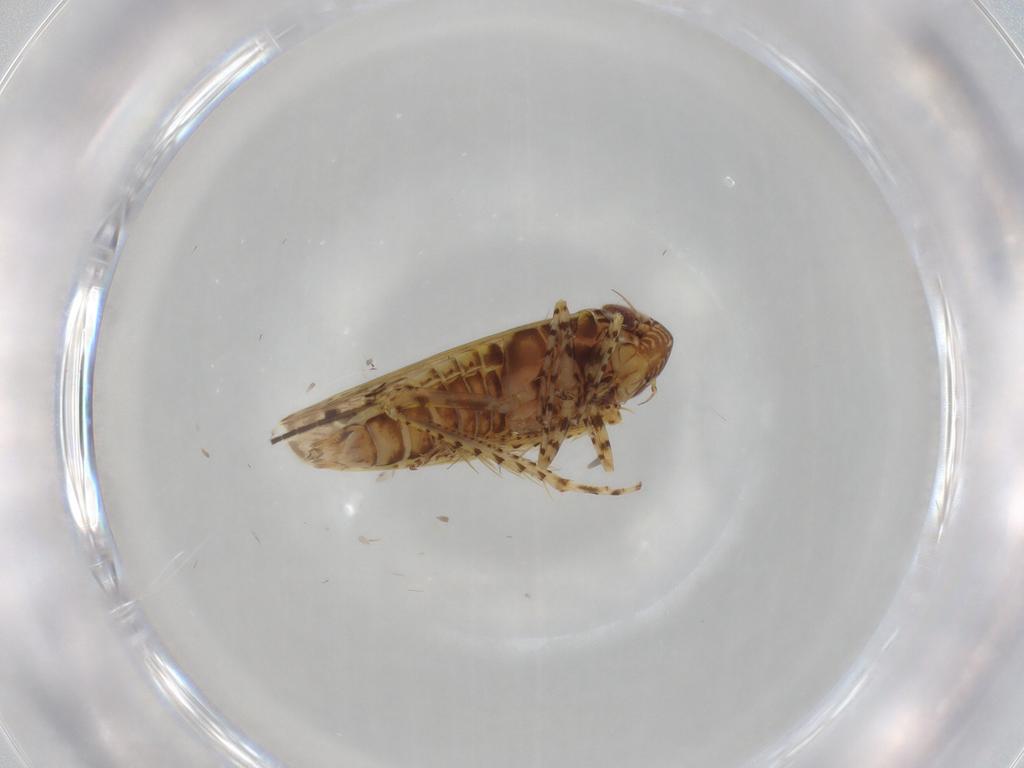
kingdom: Animalia
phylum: Arthropoda
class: Insecta
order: Hemiptera
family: Cicadellidae
